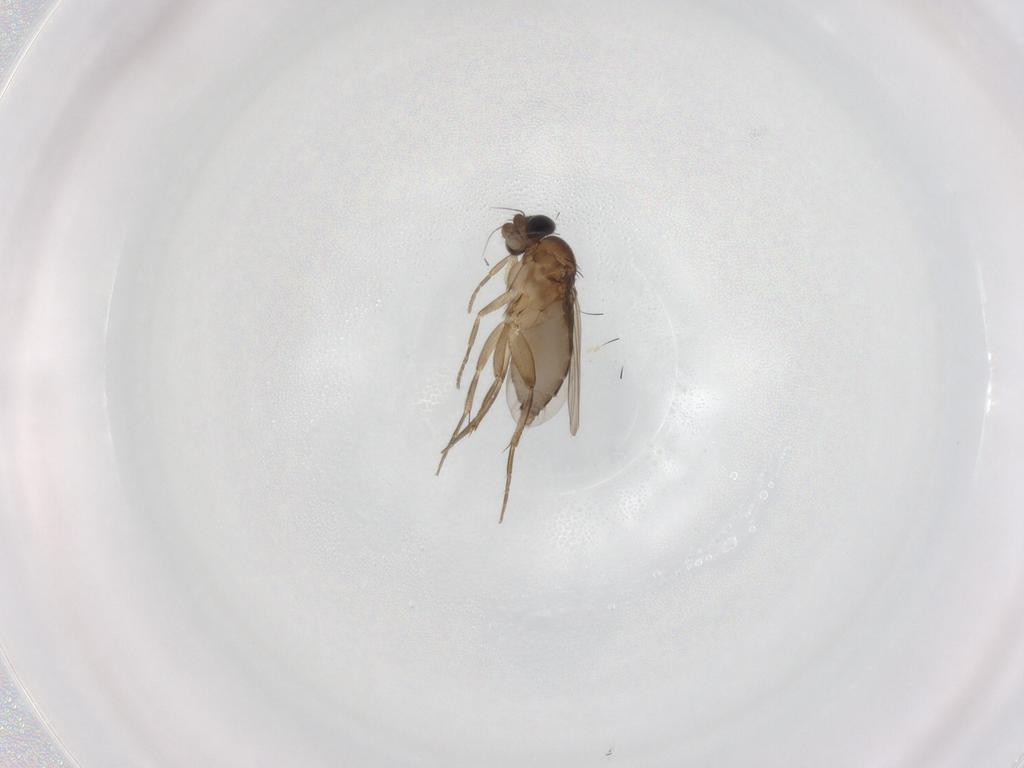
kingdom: Animalia
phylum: Arthropoda
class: Insecta
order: Diptera
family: Phoridae
